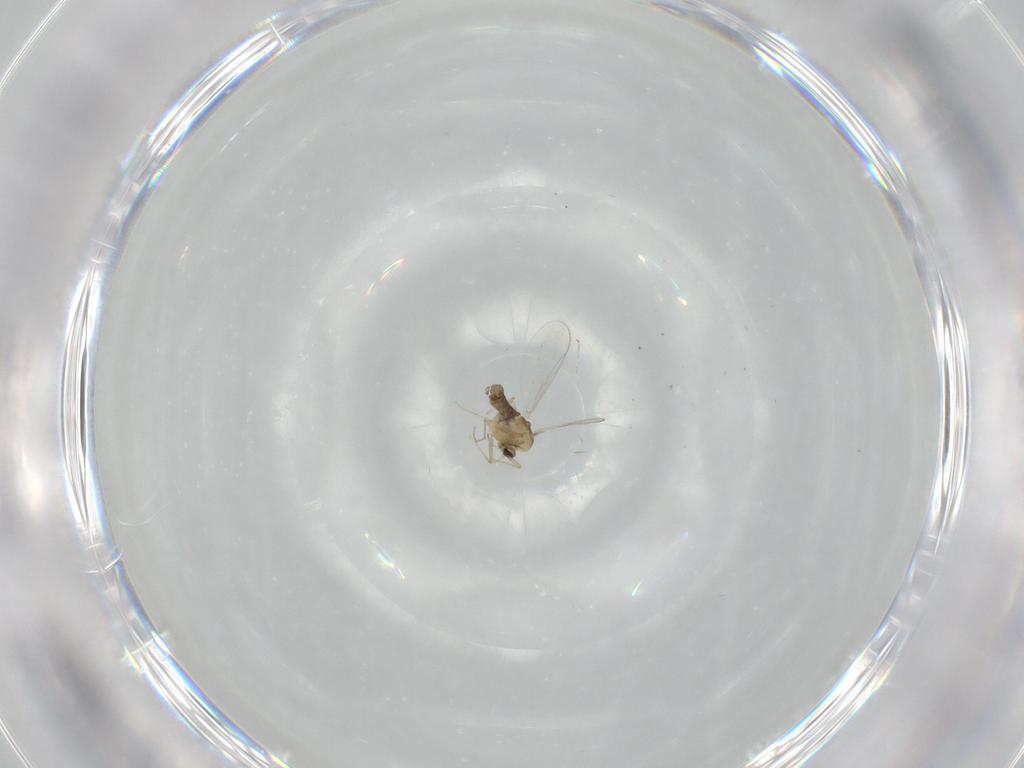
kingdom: Animalia
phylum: Arthropoda
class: Insecta
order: Diptera
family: Chironomidae
